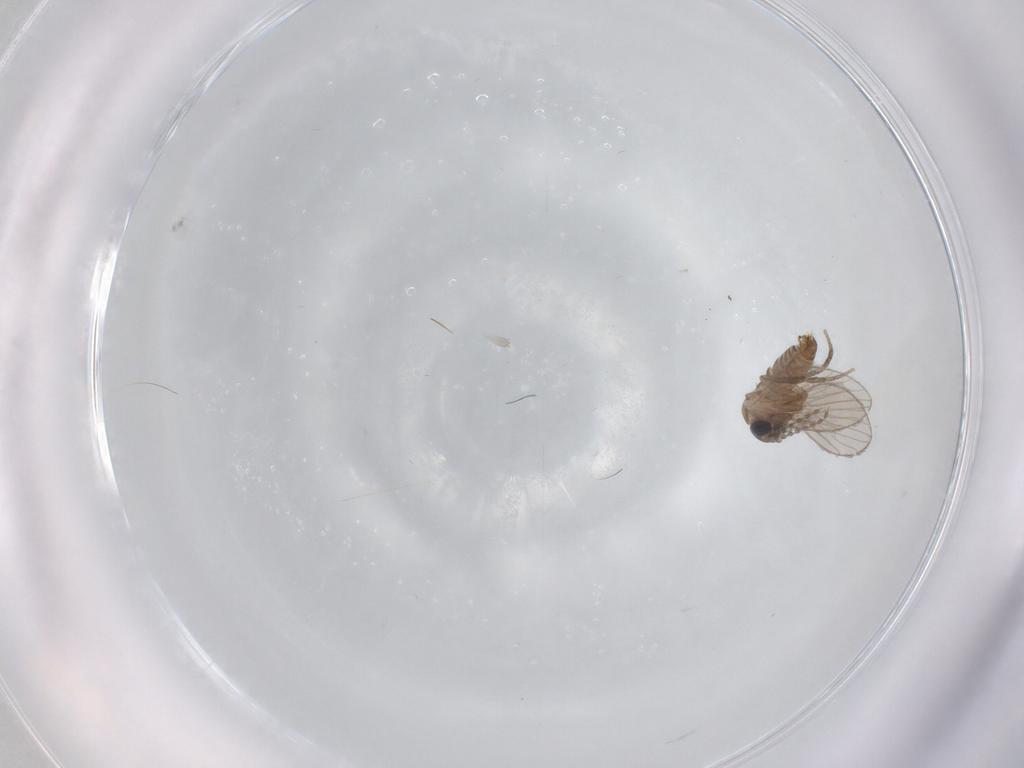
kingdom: Animalia
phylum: Arthropoda
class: Insecta
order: Diptera
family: Psychodidae
